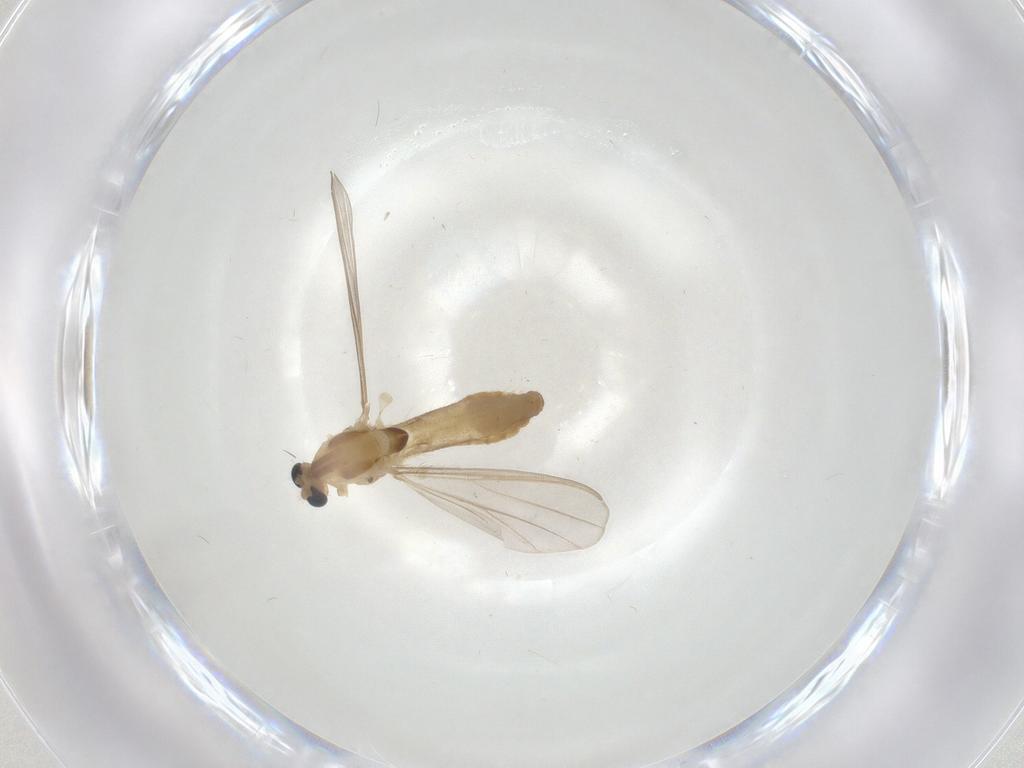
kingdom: Animalia
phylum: Arthropoda
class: Insecta
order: Diptera
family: Chironomidae
